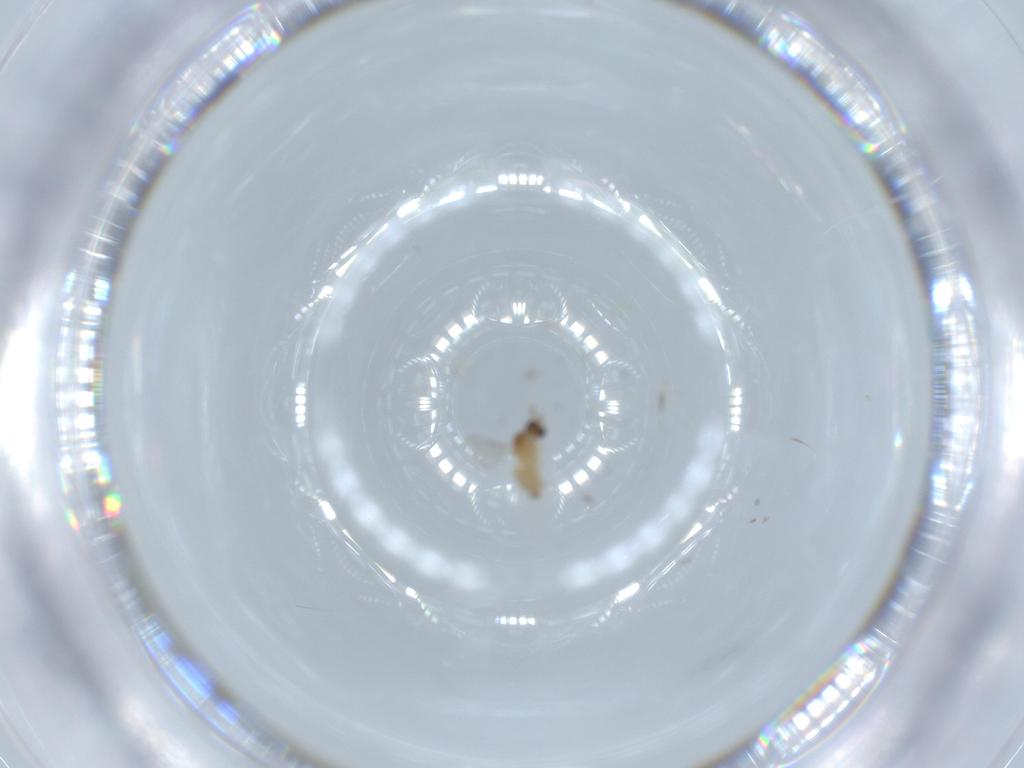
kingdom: Animalia
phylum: Arthropoda
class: Insecta
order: Diptera
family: Cecidomyiidae
